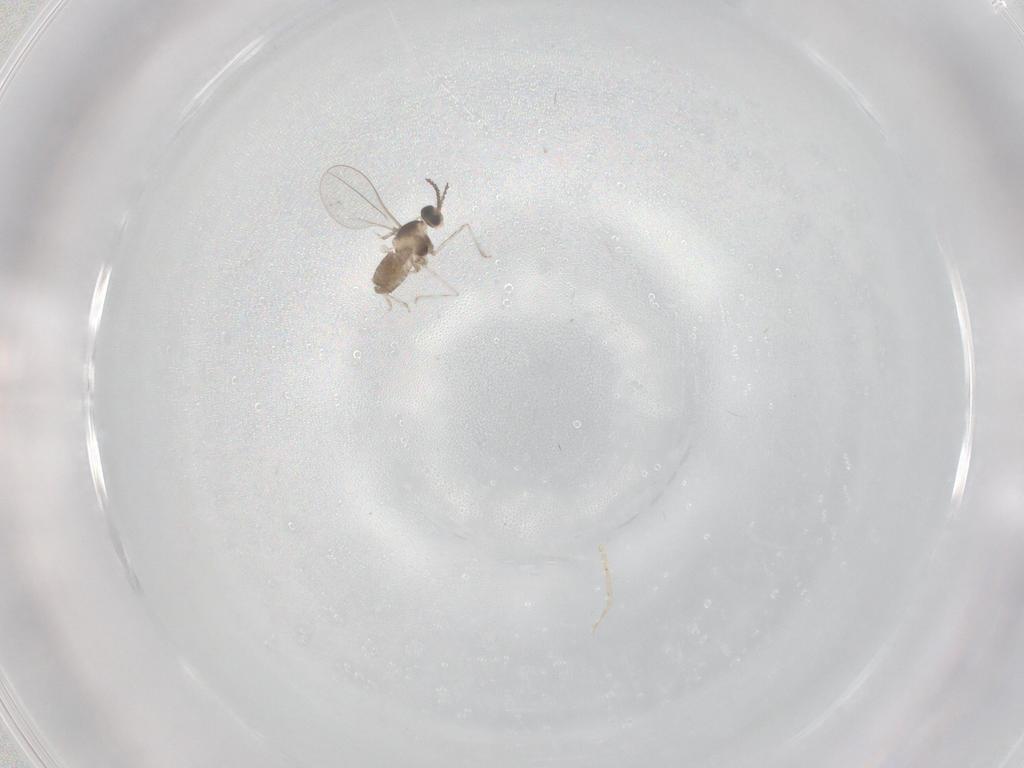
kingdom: Animalia
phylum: Arthropoda
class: Insecta
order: Diptera
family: Cecidomyiidae
